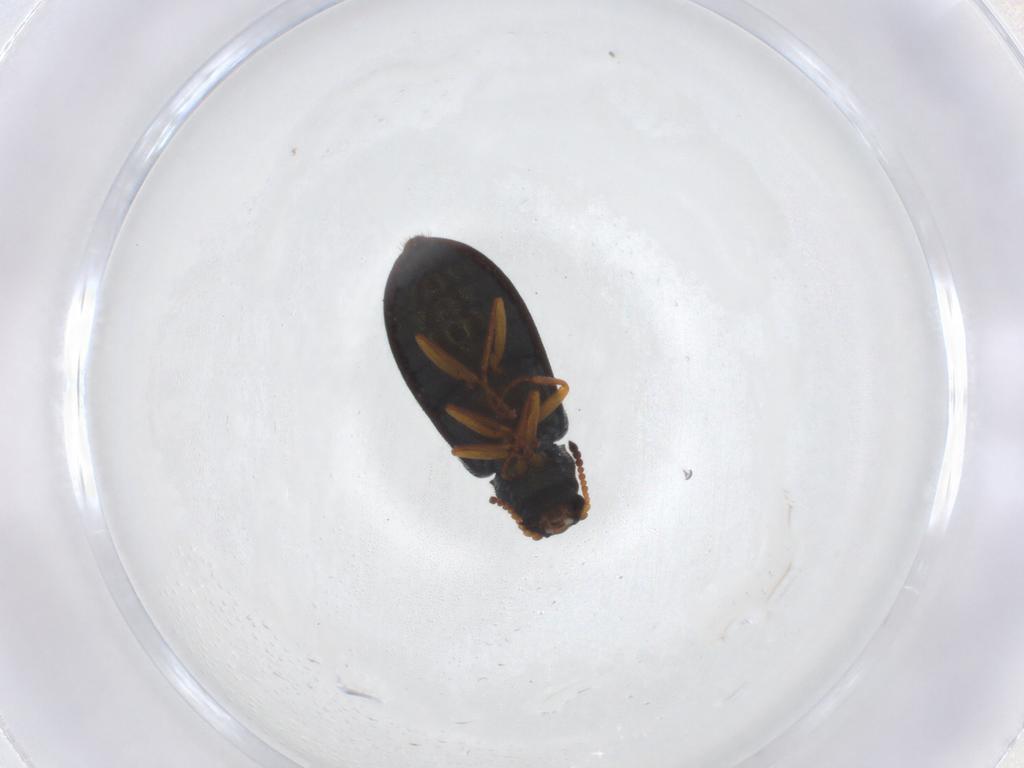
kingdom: Animalia
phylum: Arthropoda
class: Insecta
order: Coleoptera
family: Melyridae
